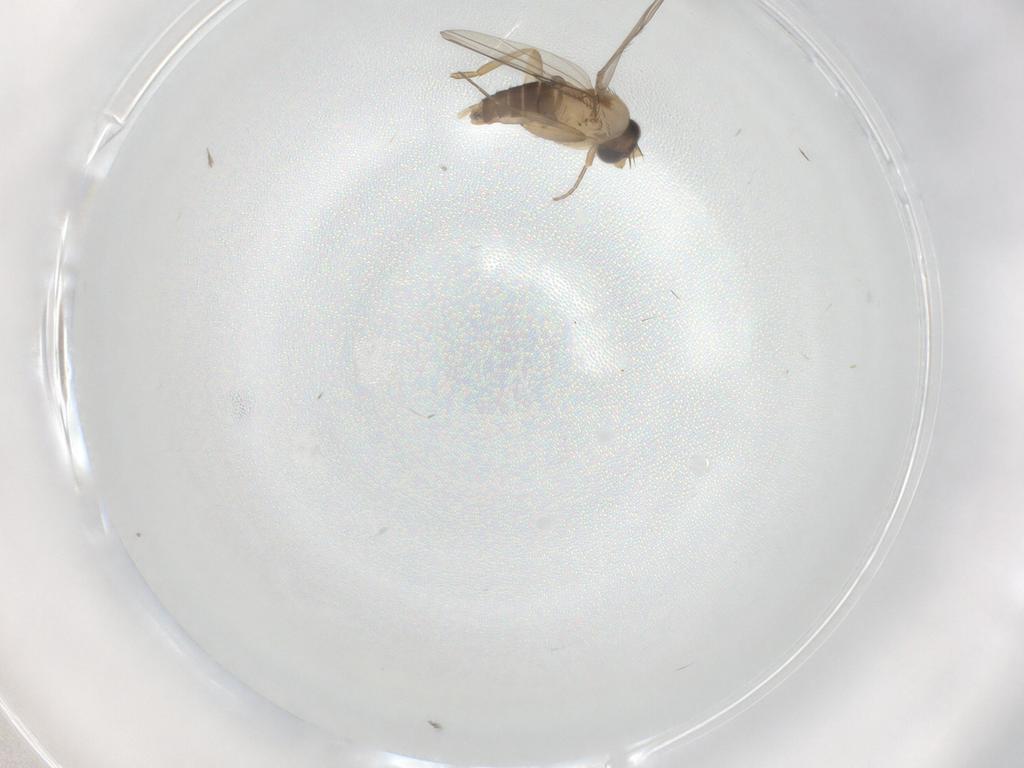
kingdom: Animalia
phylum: Arthropoda
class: Insecta
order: Diptera
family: Phoridae
